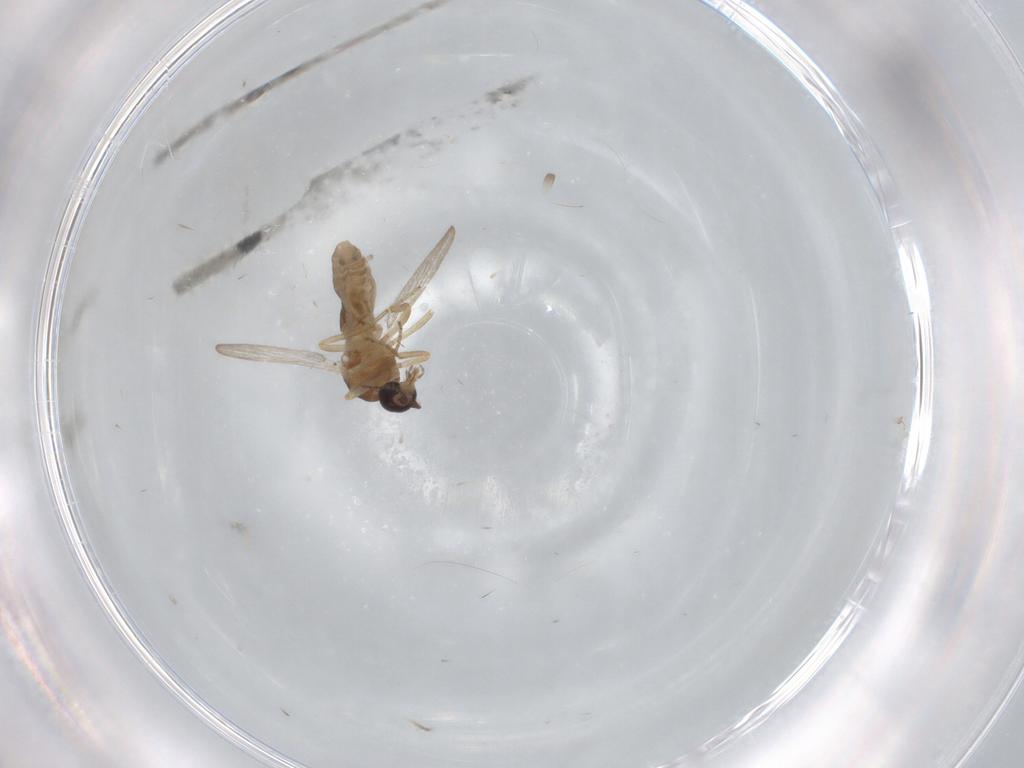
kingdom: Animalia
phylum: Arthropoda
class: Insecta
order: Diptera
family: Ceratopogonidae
